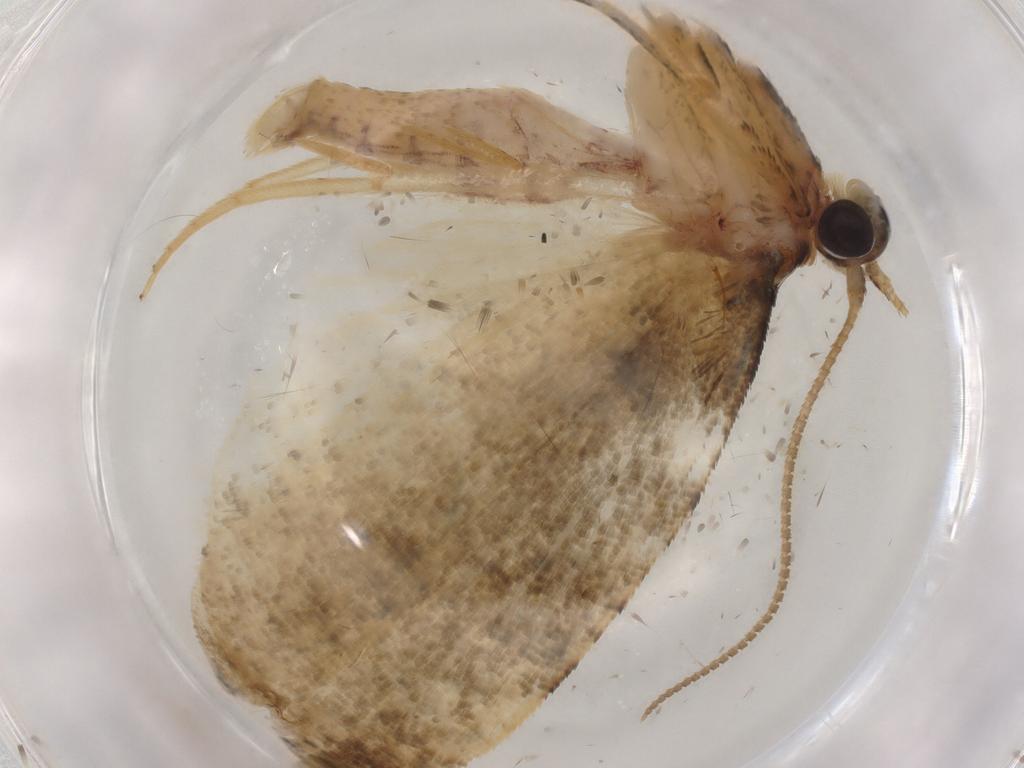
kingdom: Animalia
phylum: Arthropoda
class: Insecta
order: Lepidoptera
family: Tortricidae
